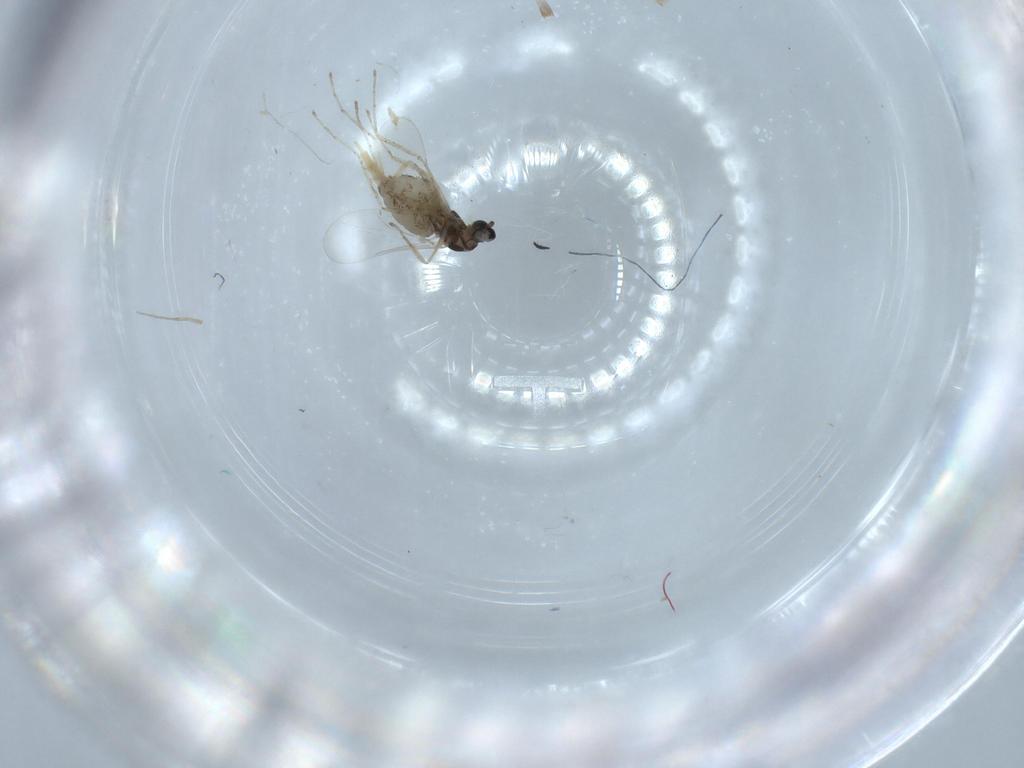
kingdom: Animalia
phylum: Arthropoda
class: Insecta
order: Diptera
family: Cecidomyiidae
